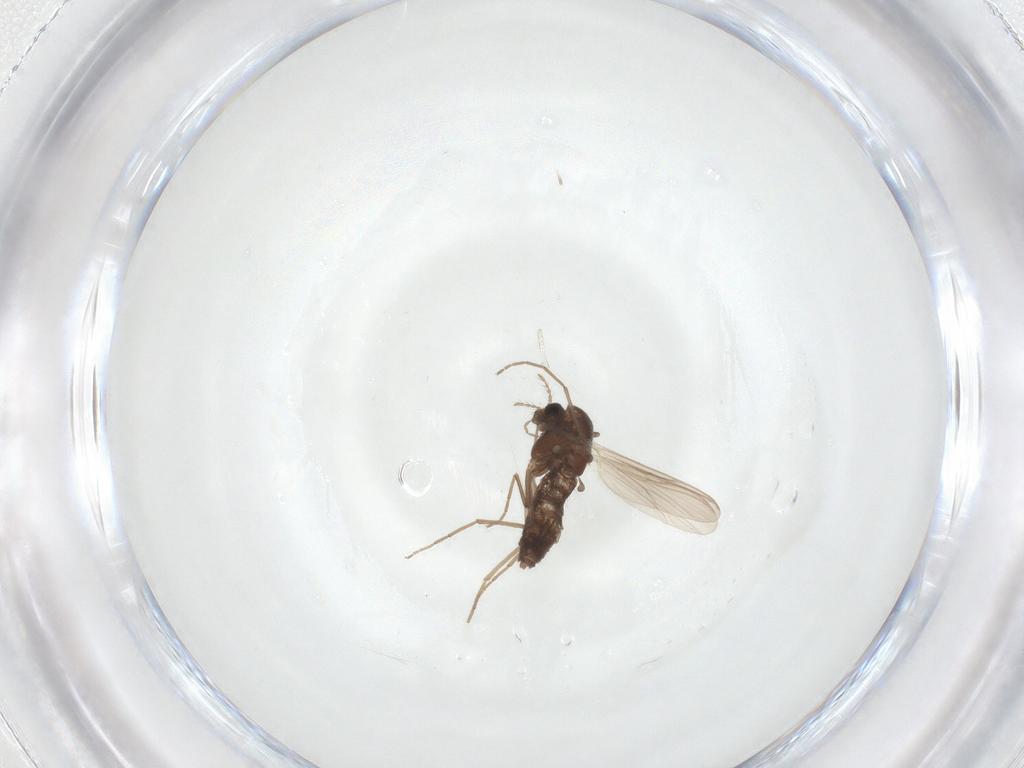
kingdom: Animalia
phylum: Arthropoda
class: Insecta
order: Diptera
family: Chironomidae
